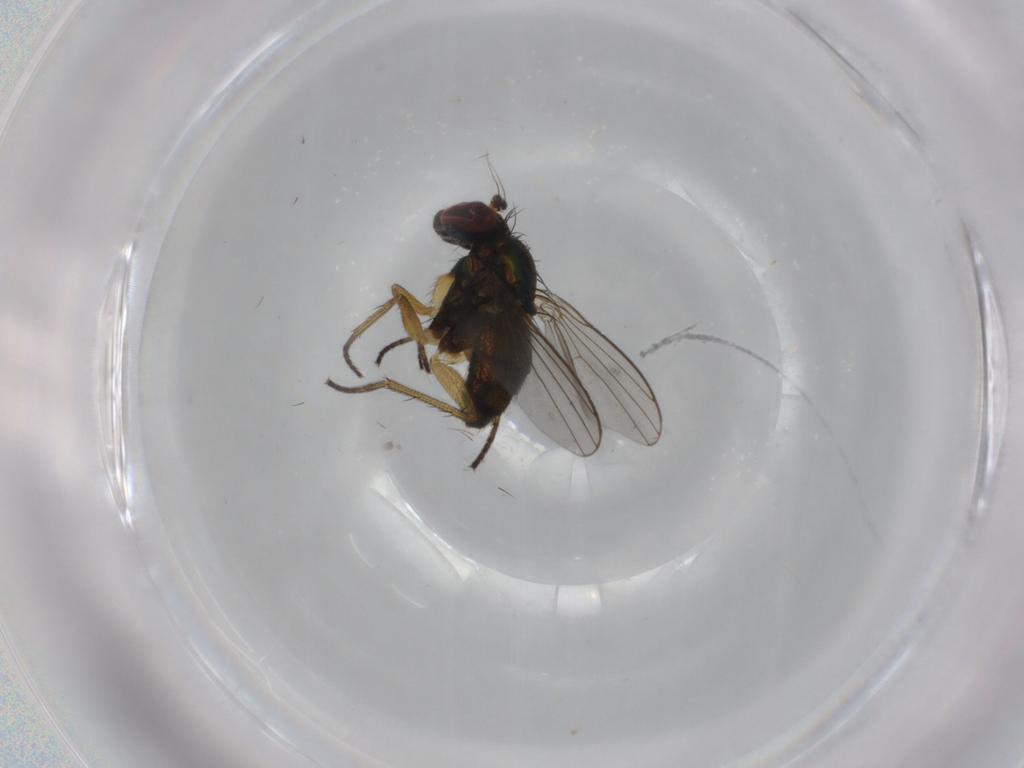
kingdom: Animalia
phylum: Arthropoda
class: Insecta
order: Diptera
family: Dolichopodidae
